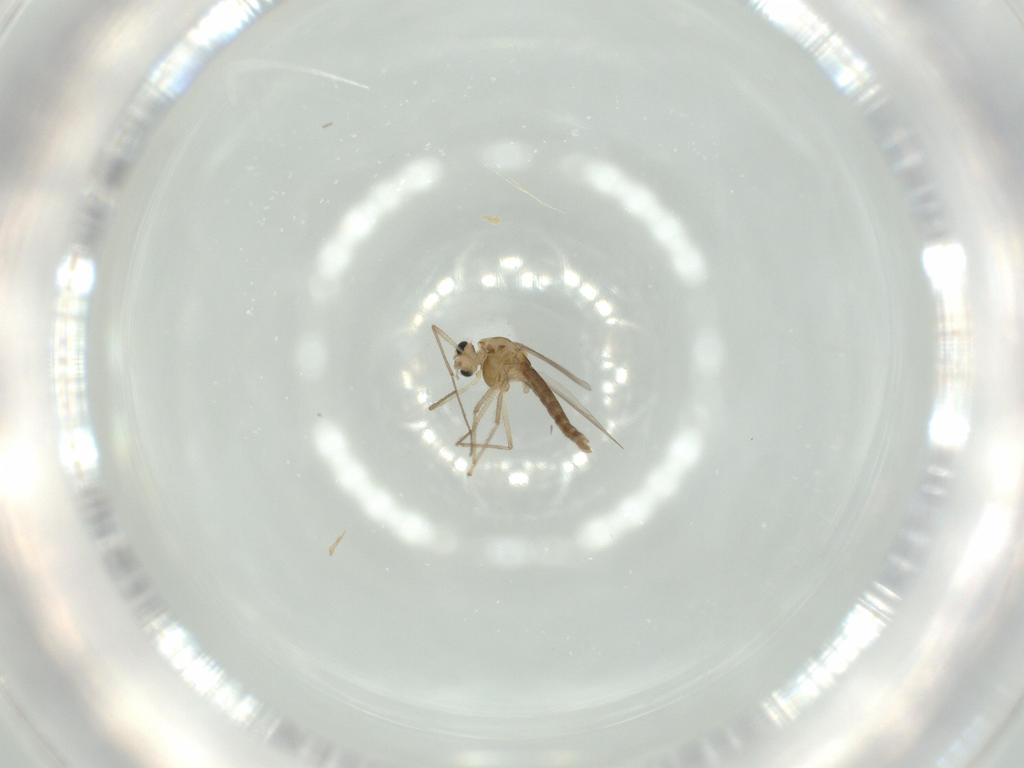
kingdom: Animalia
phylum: Arthropoda
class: Insecta
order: Diptera
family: Chironomidae
